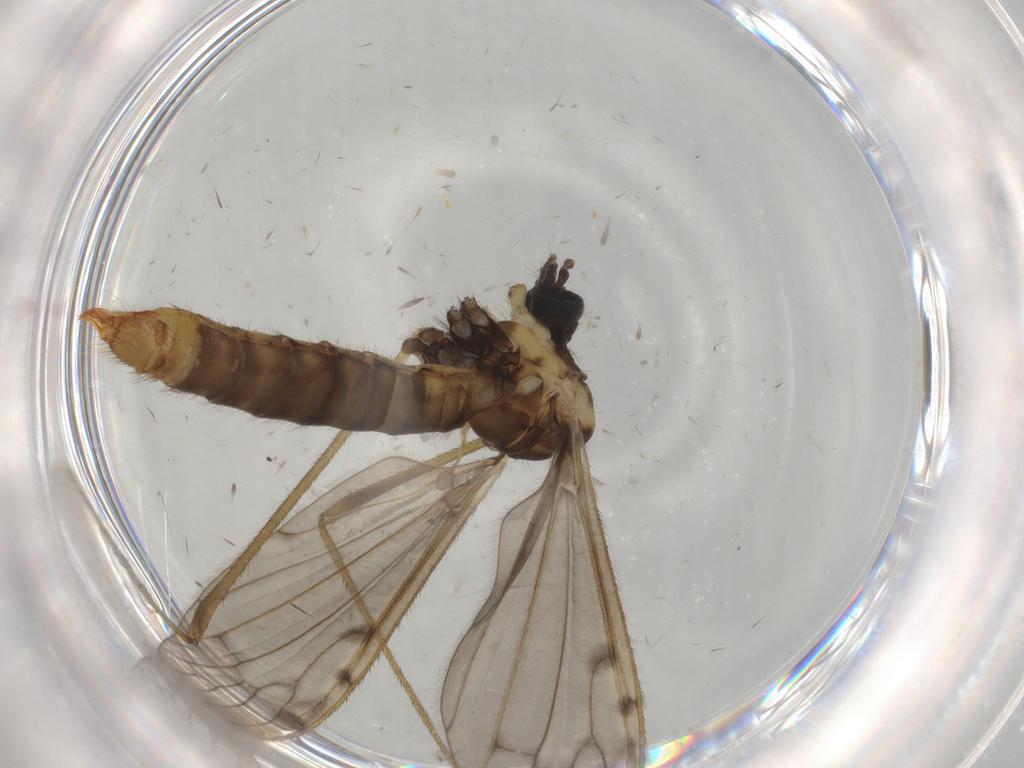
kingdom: Animalia
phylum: Arthropoda
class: Insecta
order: Diptera
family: Limoniidae
